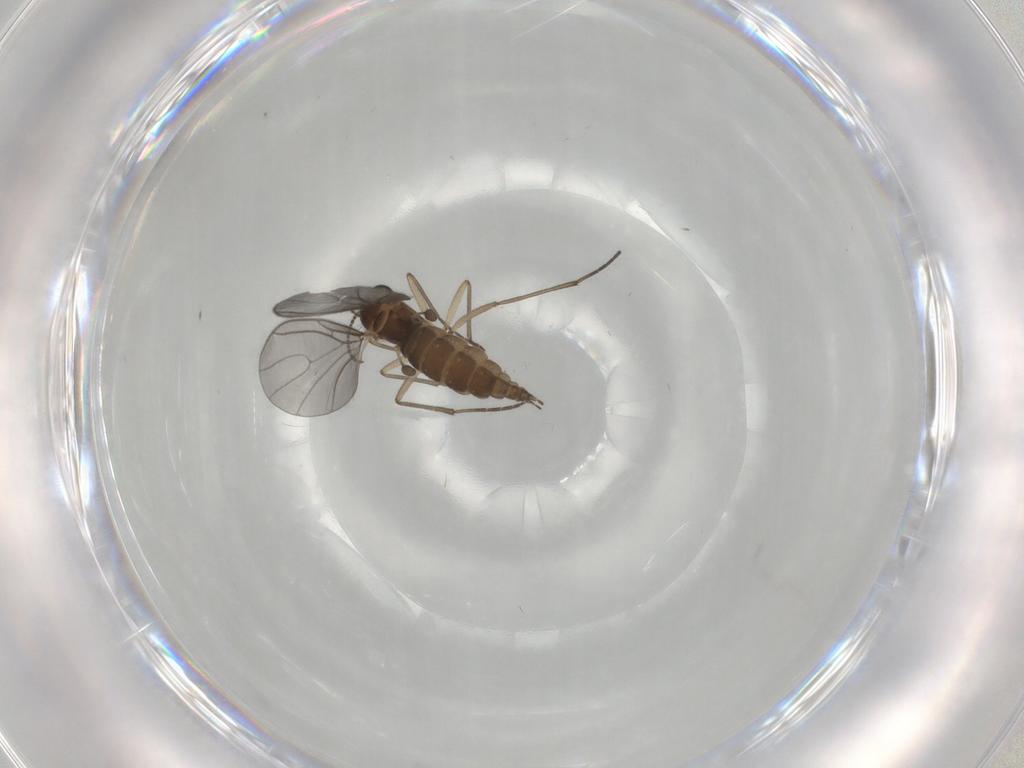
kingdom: Animalia
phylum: Arthropoda
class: Insecta
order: Diptera
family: Sciaridae
